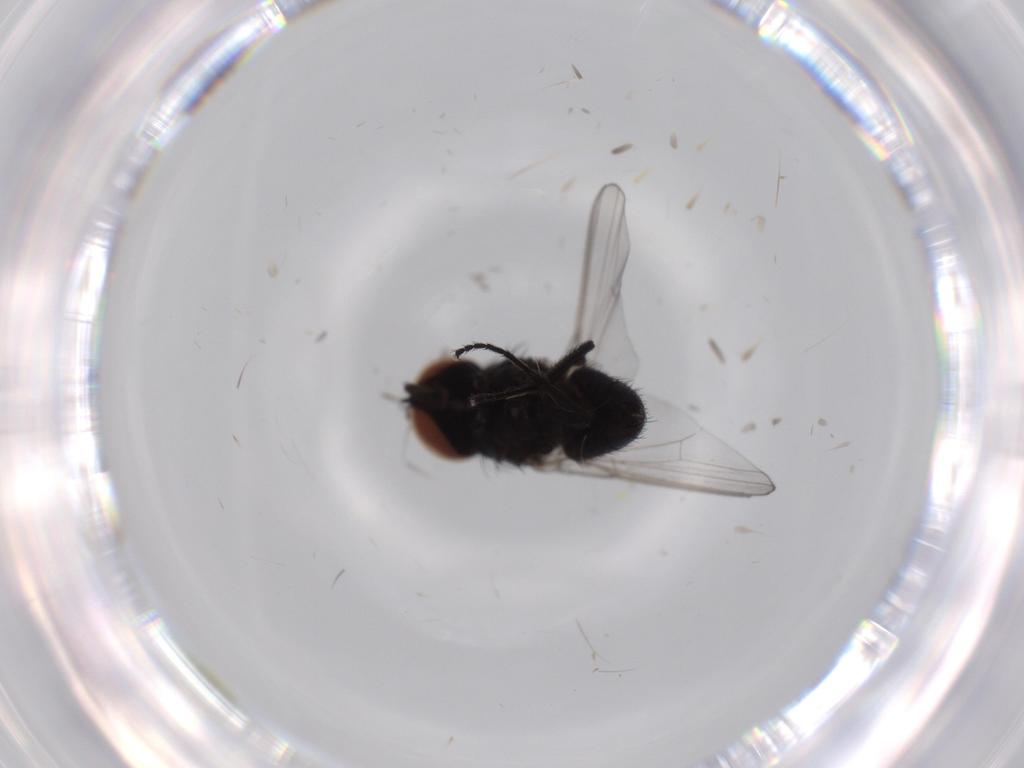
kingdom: Animalia
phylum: Arthropoda
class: Insecta
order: Diptera
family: Milichiidae
